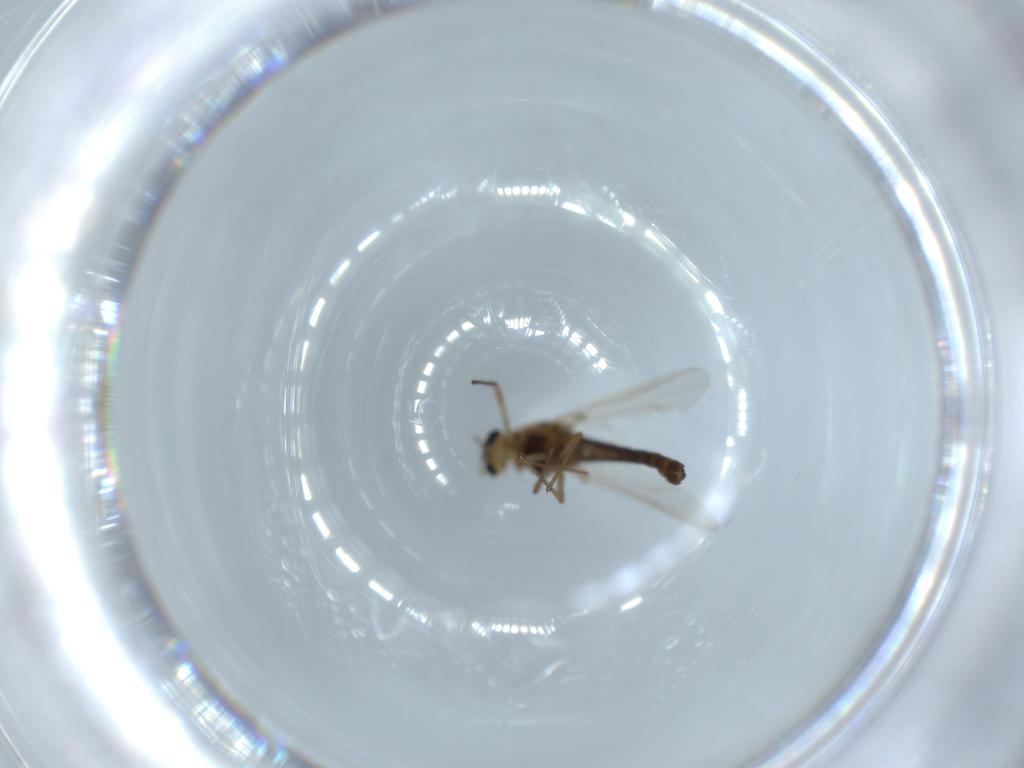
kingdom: Animalia
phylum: Arthropoda
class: Insecta
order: Diptera
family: Cecidomyiidae
